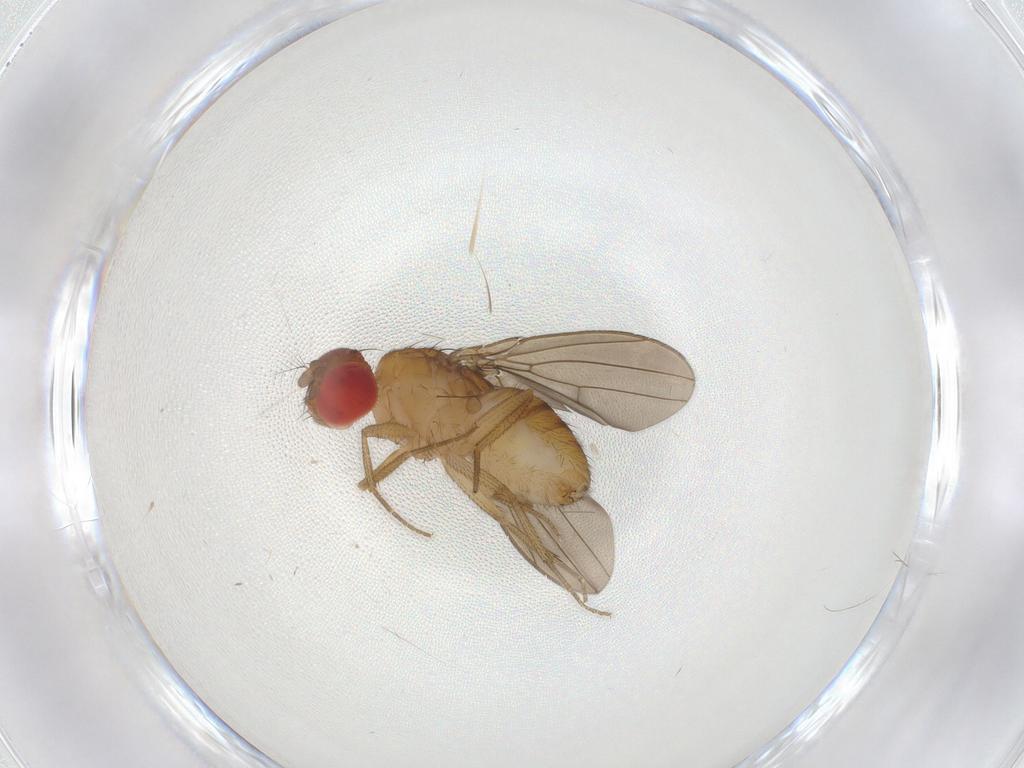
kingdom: Animalia
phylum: Arthropoda
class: Insecta
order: Diptera
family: Drosophilidae
